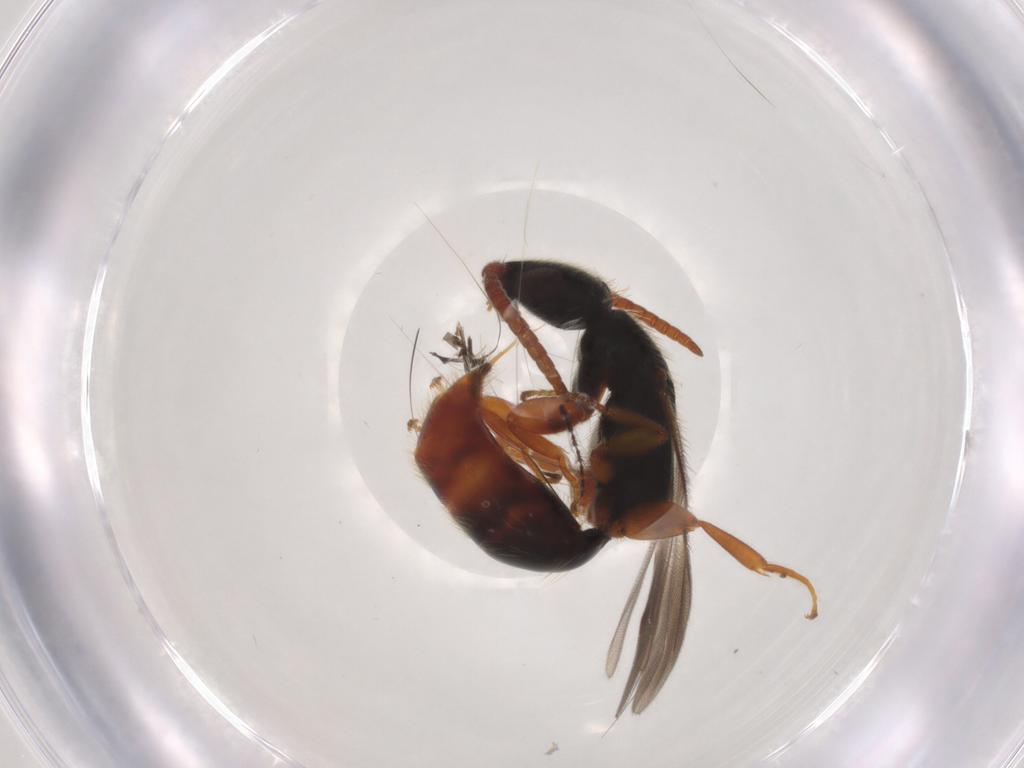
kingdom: Animalia
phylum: Arthropoda
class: Insecta
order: Hymenoptera
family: Bethylidae
